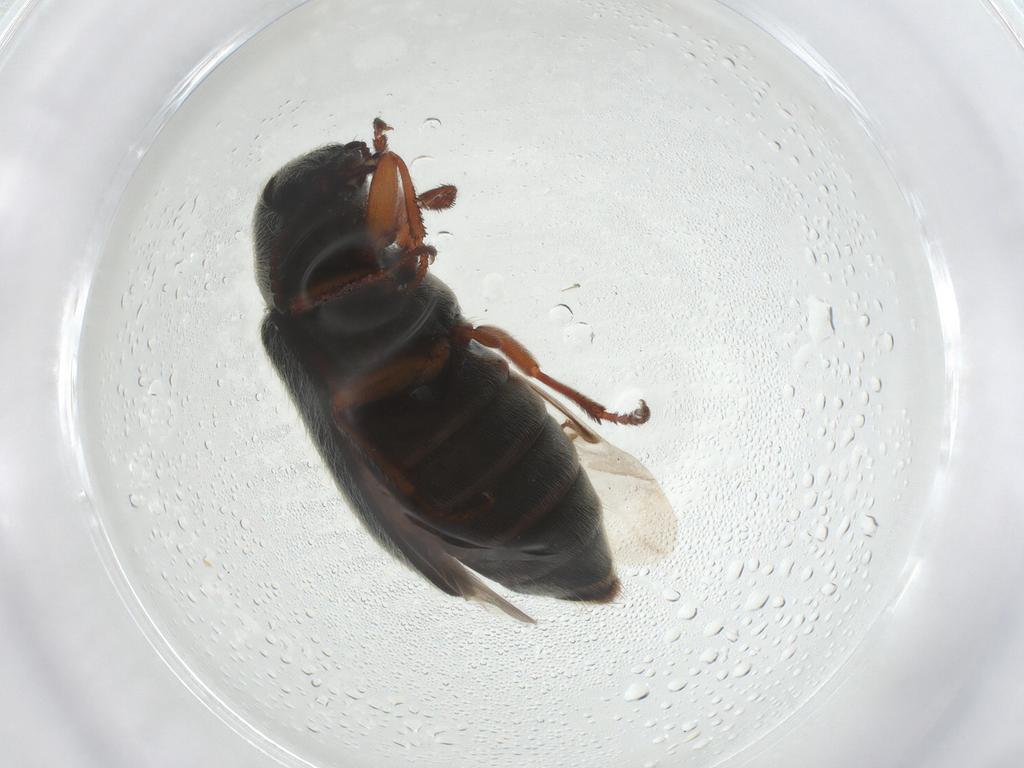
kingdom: Animalia
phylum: Arthropoda
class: Insecta
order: Coleoptera
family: Melyridae
